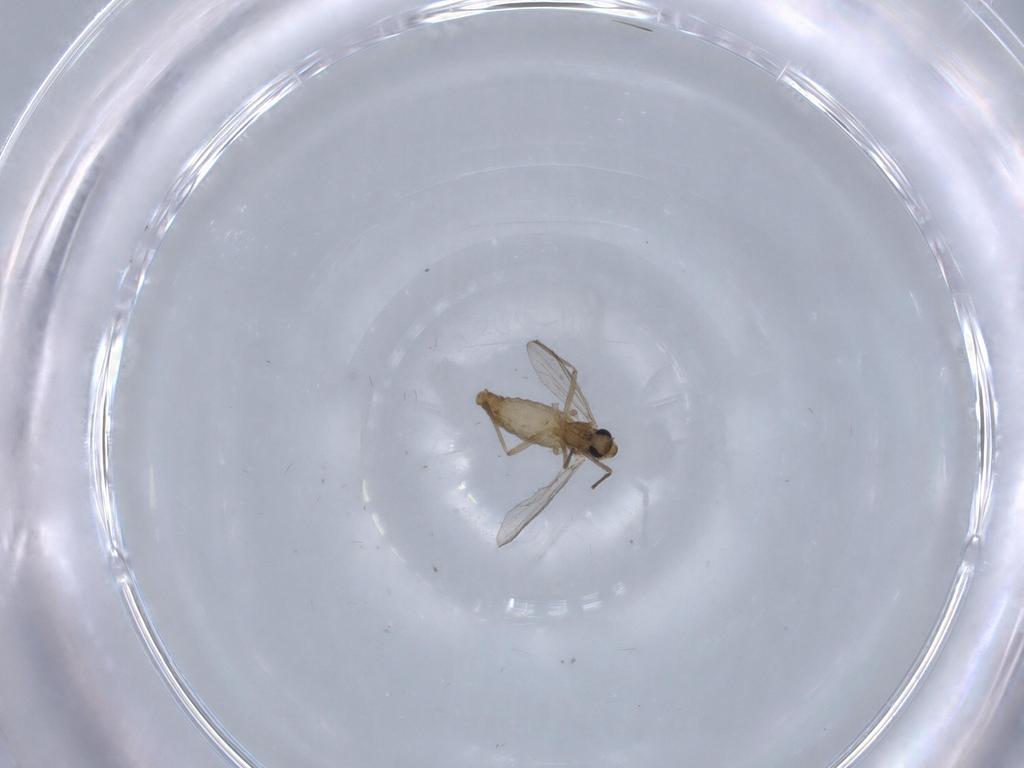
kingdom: Animalia
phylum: Arthropoda
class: Insecta
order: Diptera
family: Chironomidae
